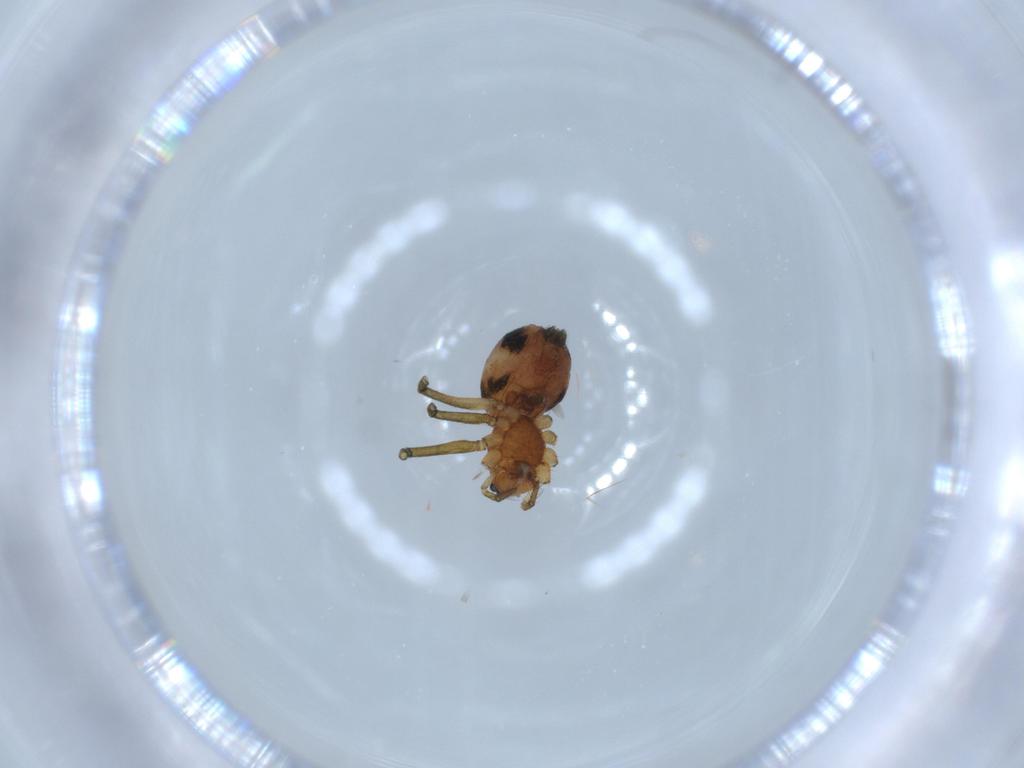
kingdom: Animalia
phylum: Arthropoda
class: Arachnida
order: Araneae
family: Linyphiidae
